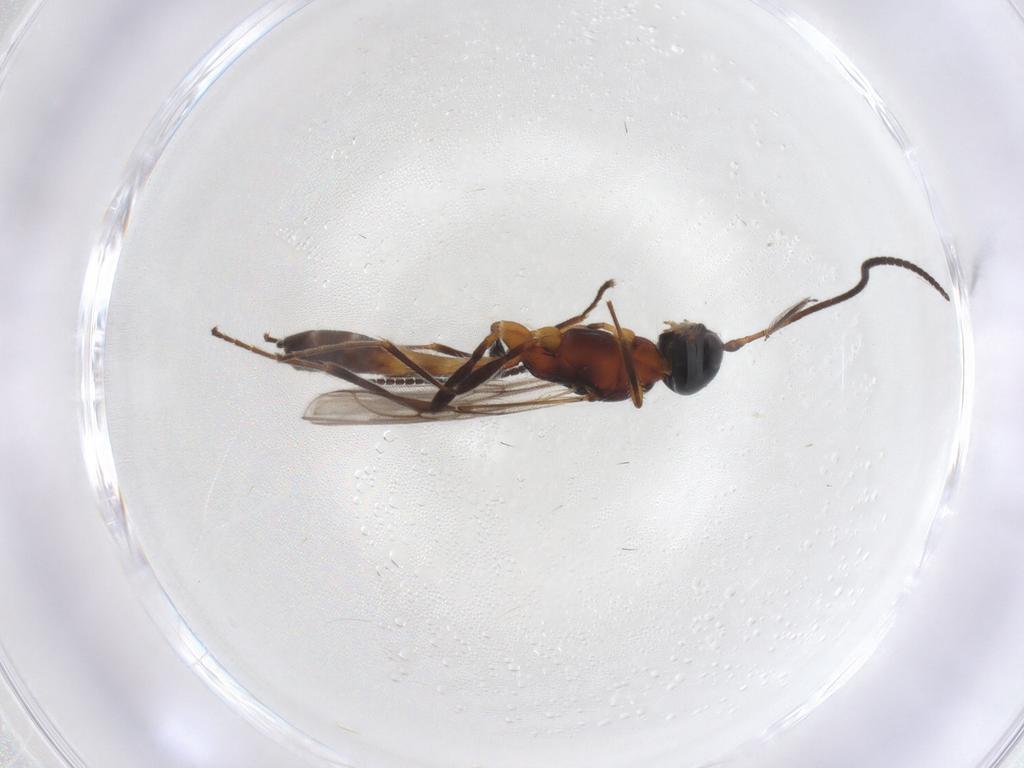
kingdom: Animalia
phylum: Arthropoda
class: Insecta
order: Hymenoptera
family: Braconidae
